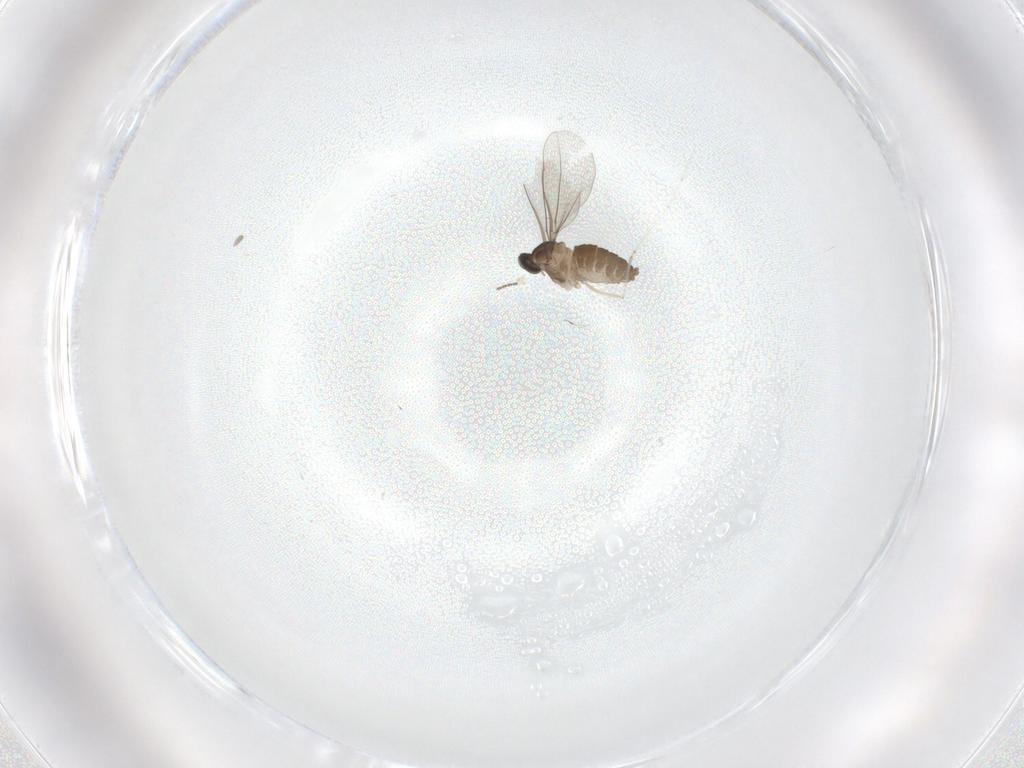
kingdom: Animalia
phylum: Arthropoda
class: Insecta
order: Diptera
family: Cecidomyiidae
